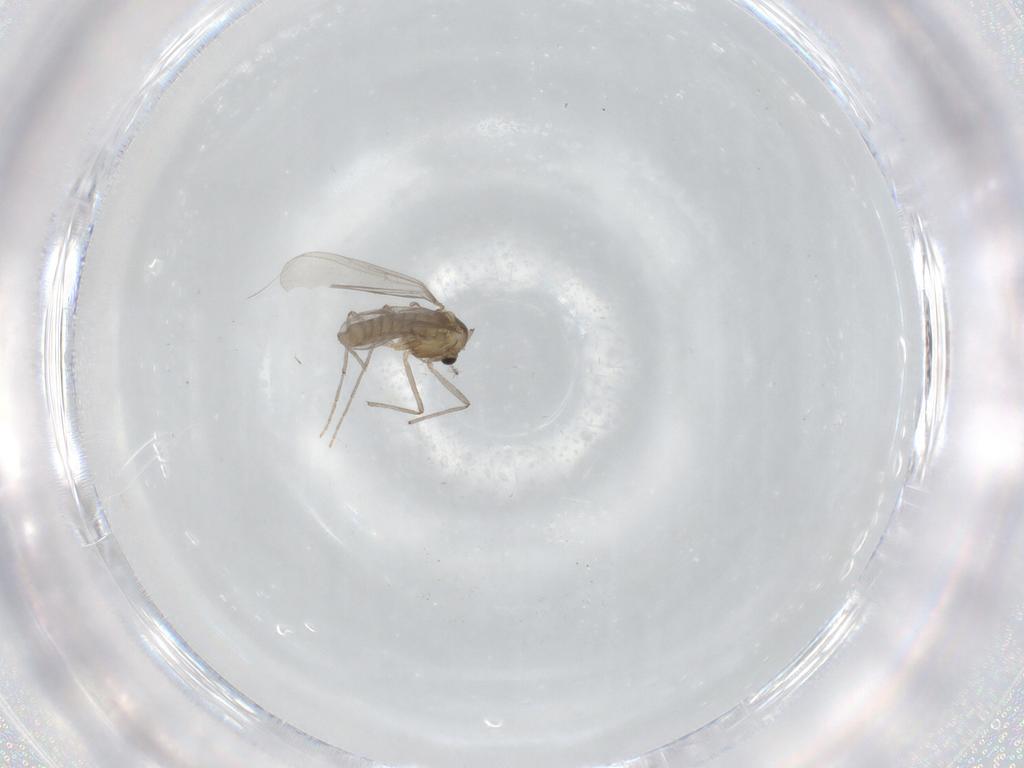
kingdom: Animalia
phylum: Arthropoda
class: Insecta
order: Diptera
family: Chironomidae
